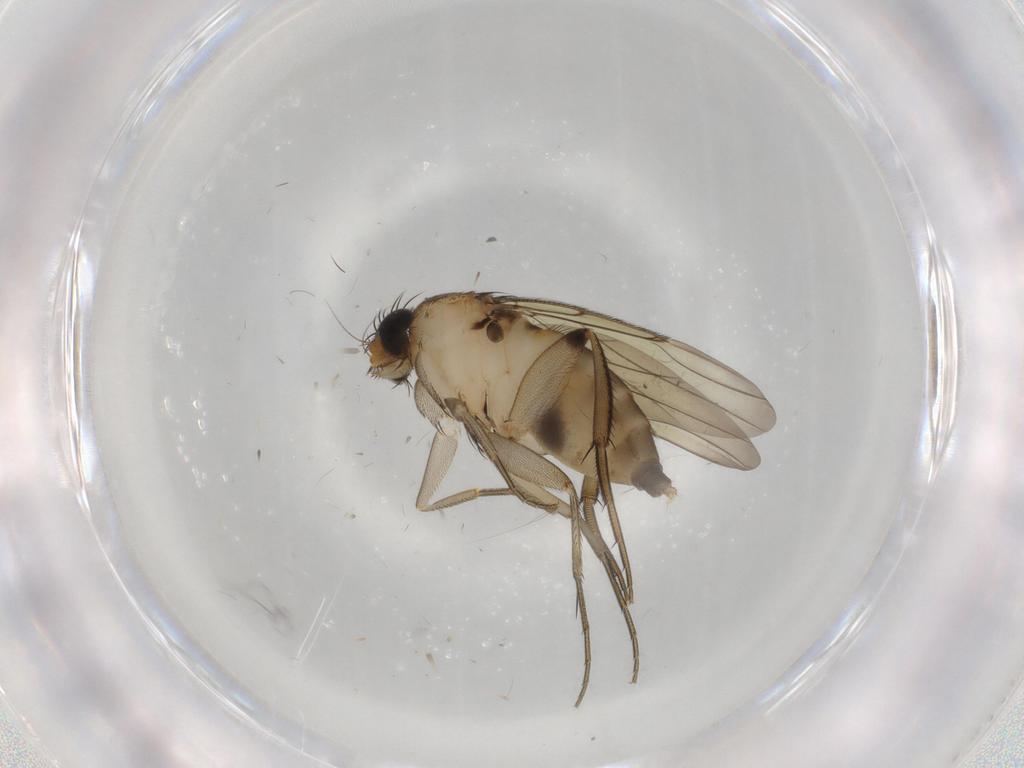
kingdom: Animalia
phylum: Arthropoda
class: Insecta
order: Diptera
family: Phoridae
